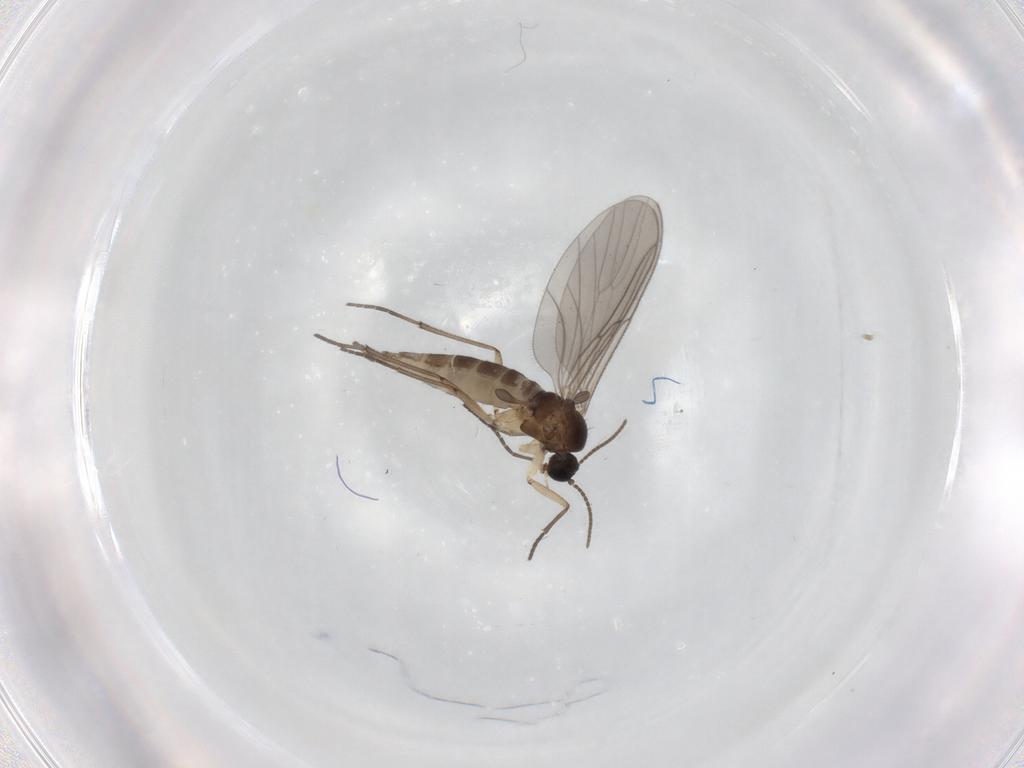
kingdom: Animalia
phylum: Arthropoda
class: Insecta
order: Diptera
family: Sciaridae
